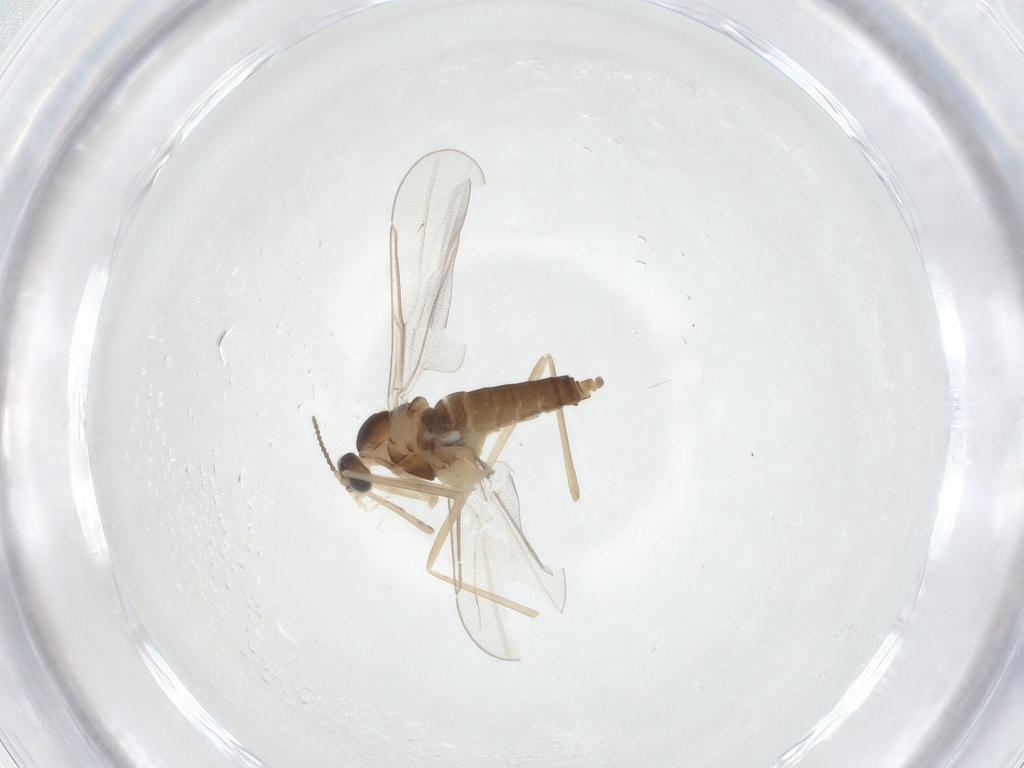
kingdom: Animalia
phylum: Arthropoda
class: Insecta
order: Diptera
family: Cecidomyiidae
